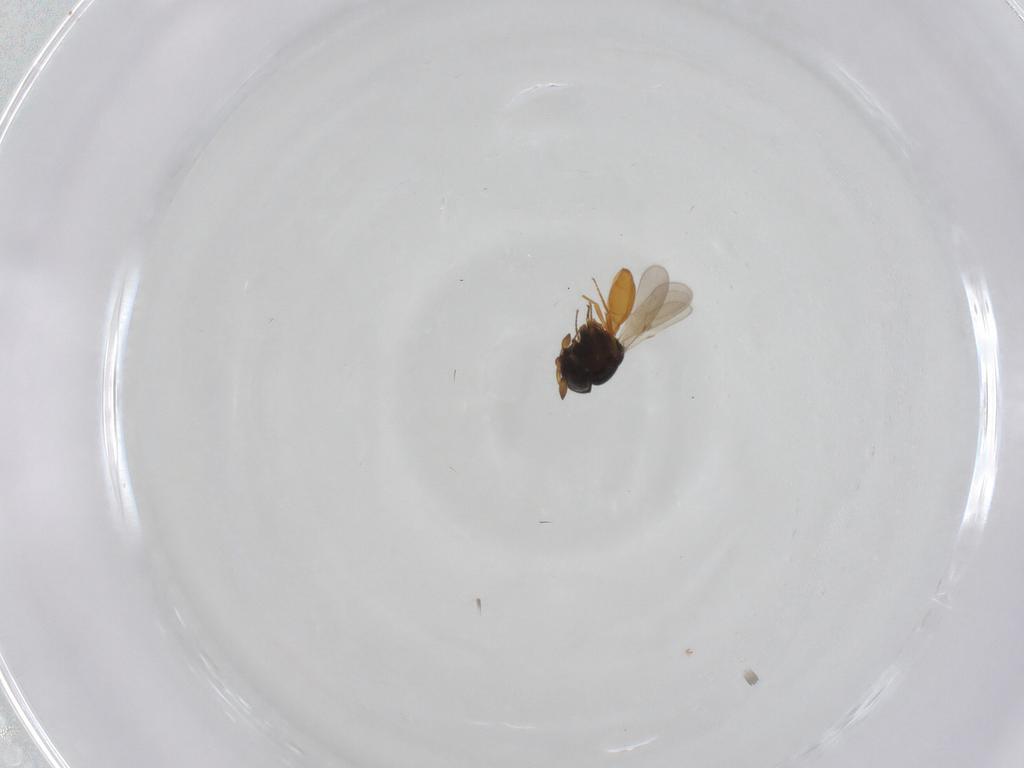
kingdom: Animalia
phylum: Arthropoda
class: Insecta
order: Hymenoptera
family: Scelionidae
